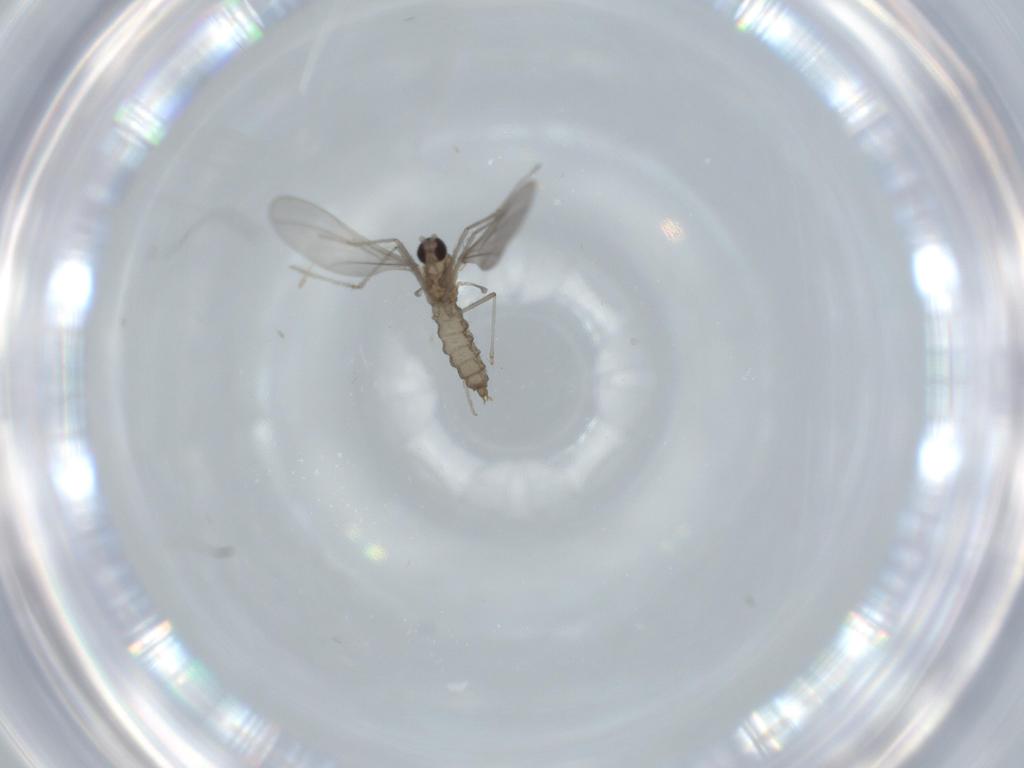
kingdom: Animalia
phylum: Arthropoda
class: Insecta
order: Diptera
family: Cecidomyiidae
